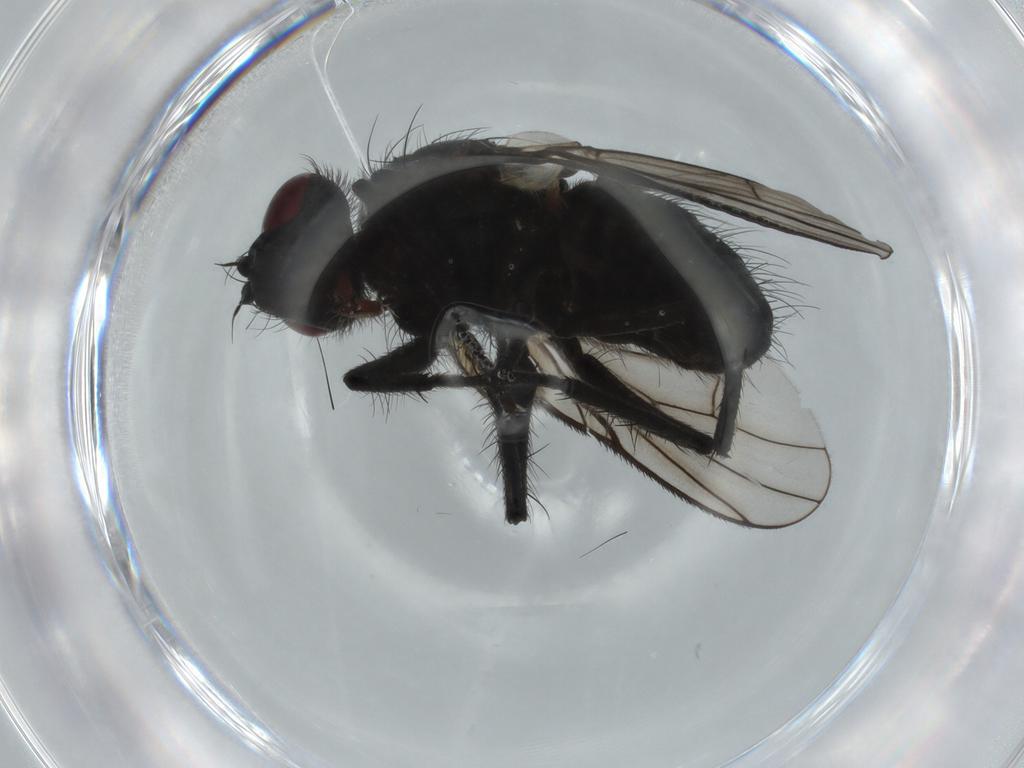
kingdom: Animalia
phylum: Arthropoda
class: Insecta
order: Diptera
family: Muscidae
